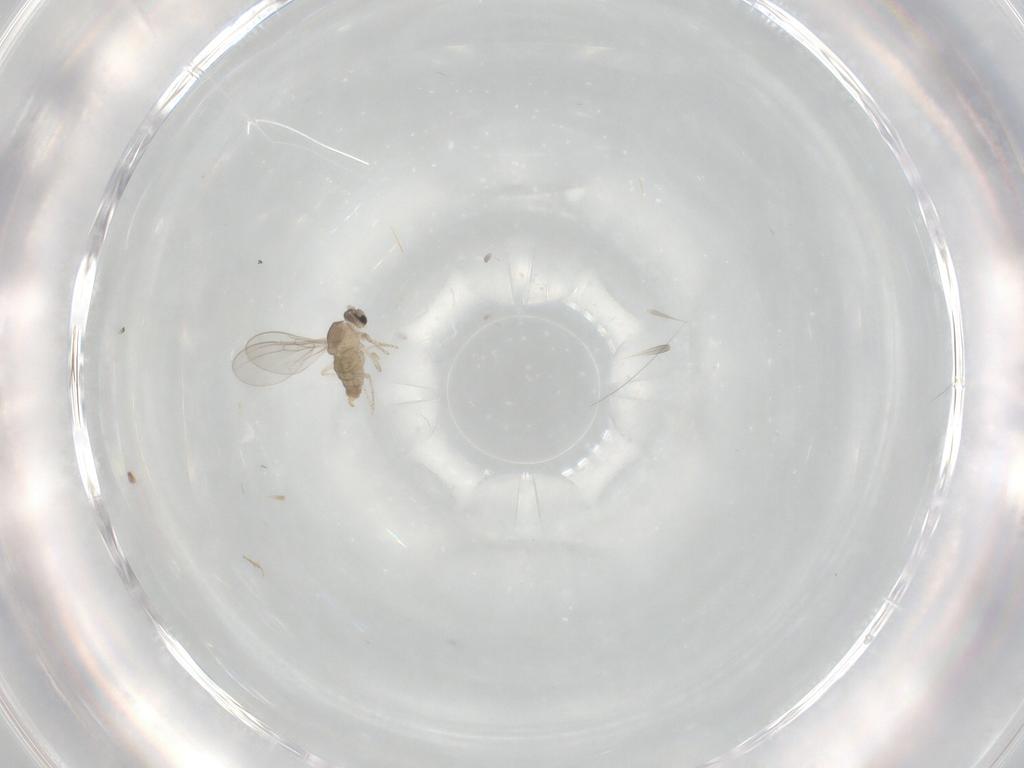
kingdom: Animalia
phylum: Arthropoda
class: Insecta
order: Diptera
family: Cecidomyiidae
